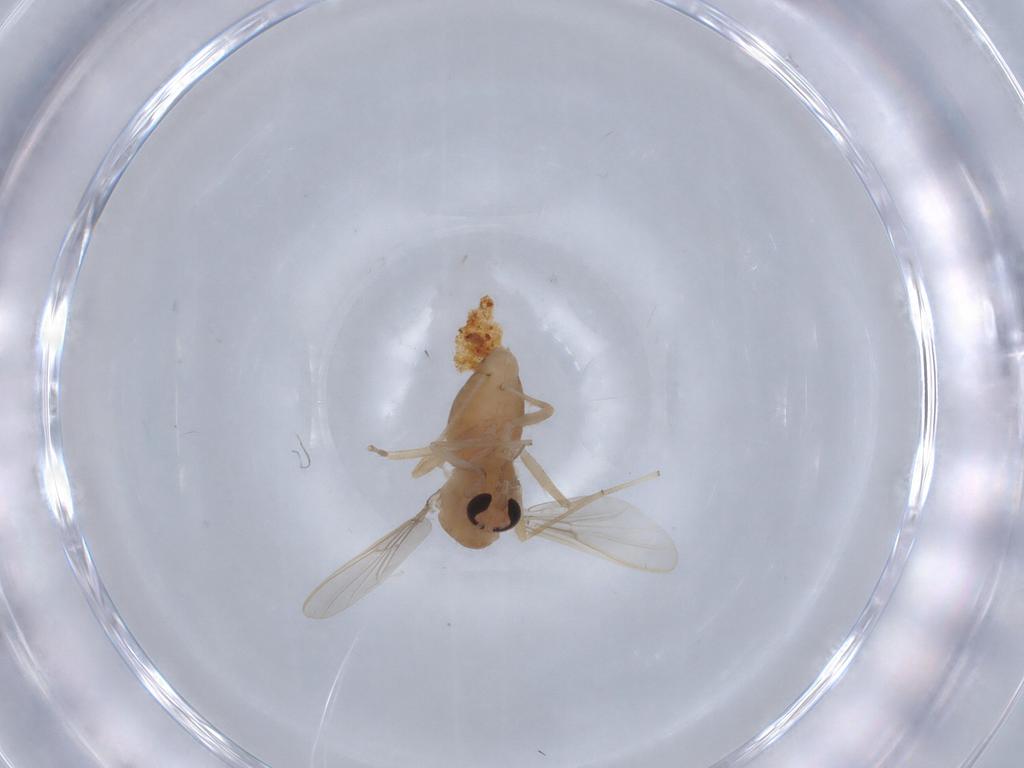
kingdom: Animalia
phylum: Arthropoda
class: Insecta
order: Diptera
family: Chironomidae
